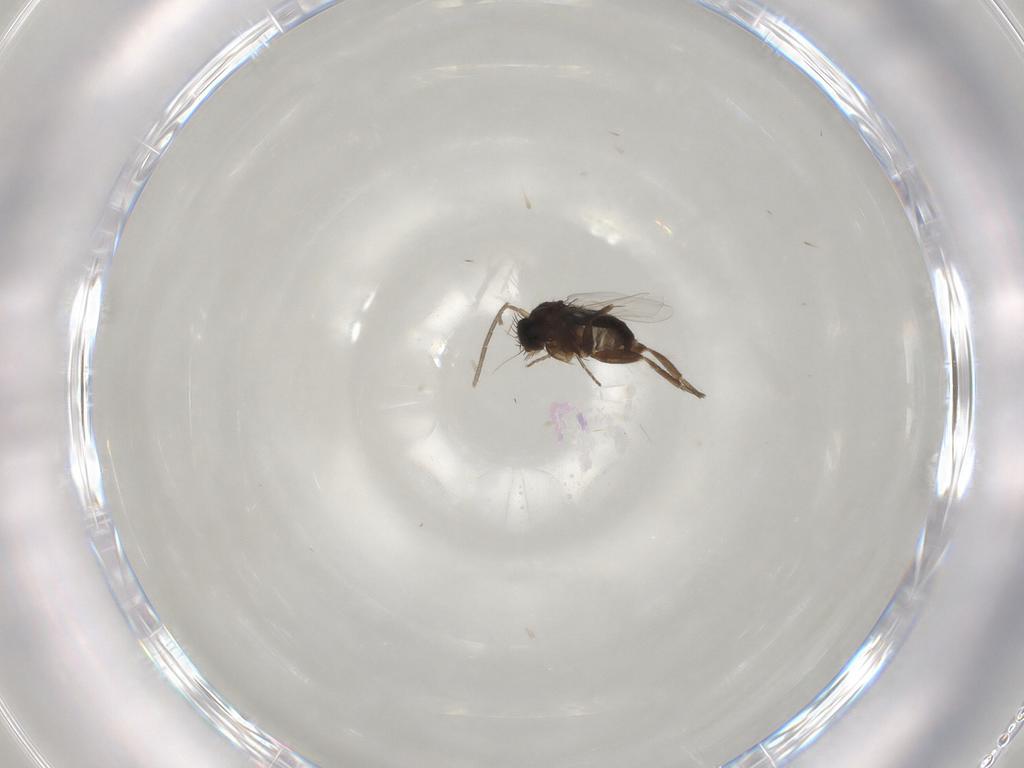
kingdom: Animalia
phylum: Arthropoda
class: Insecta
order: Diptera
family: Phoridae
